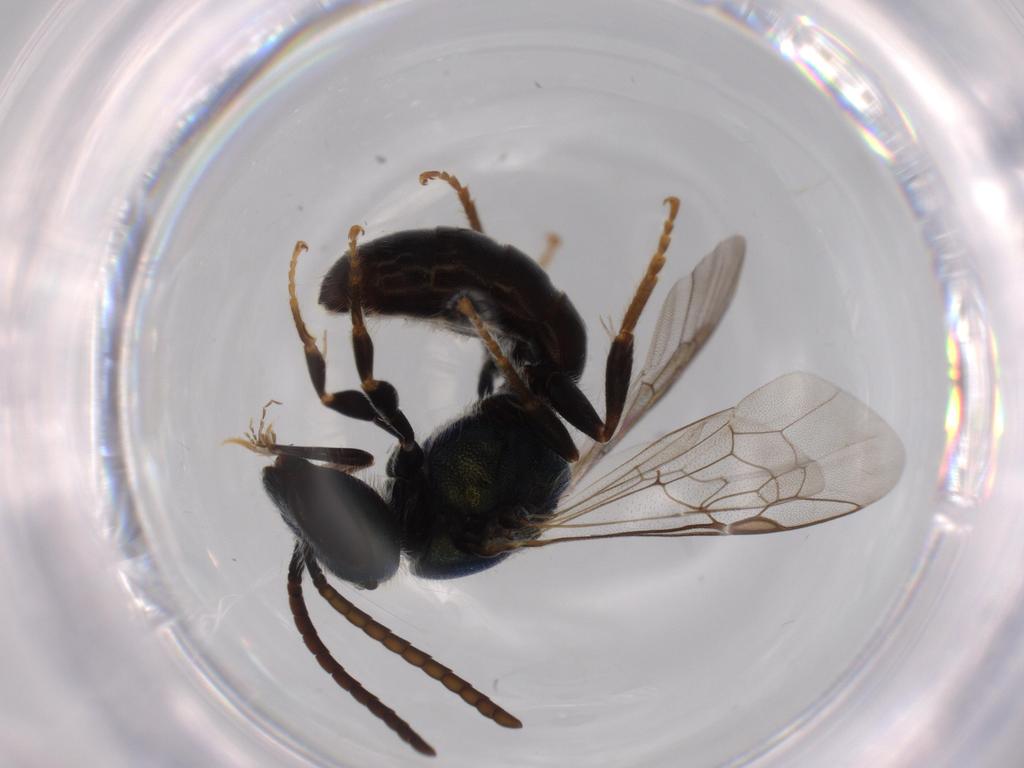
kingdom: Animalia
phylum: Arthropoda
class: Insecta
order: Hymenoptera
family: Halictidae
